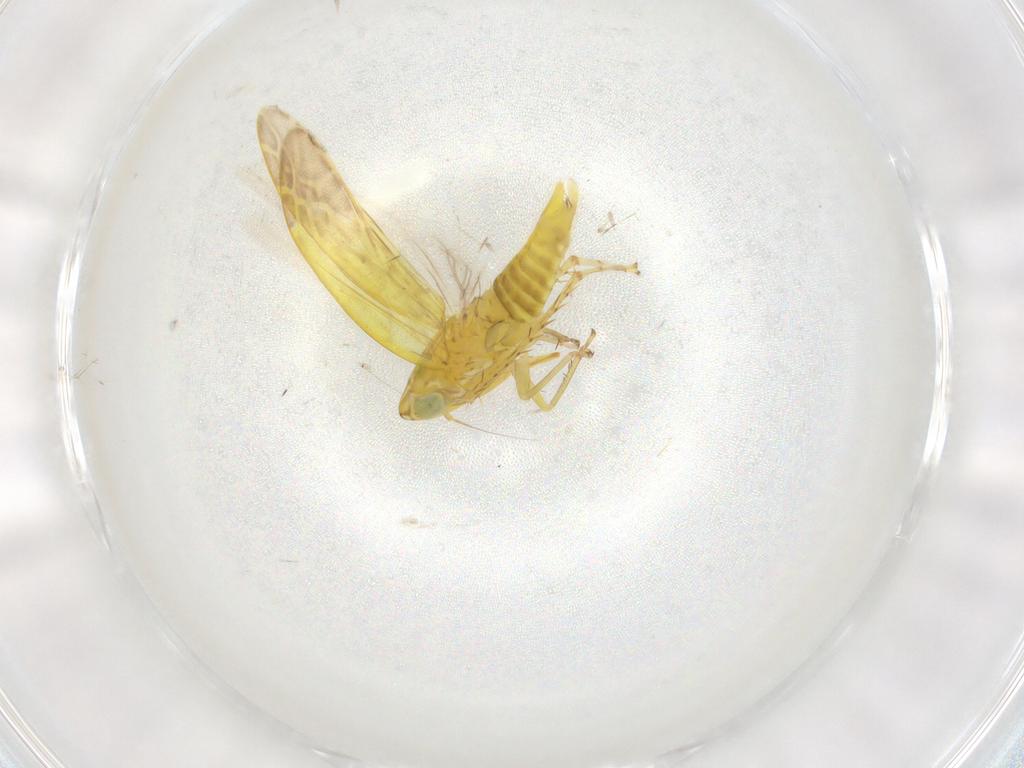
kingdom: Animalia
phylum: Arthropoda
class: Insecta
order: Hemiptera
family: Cicadellidae
